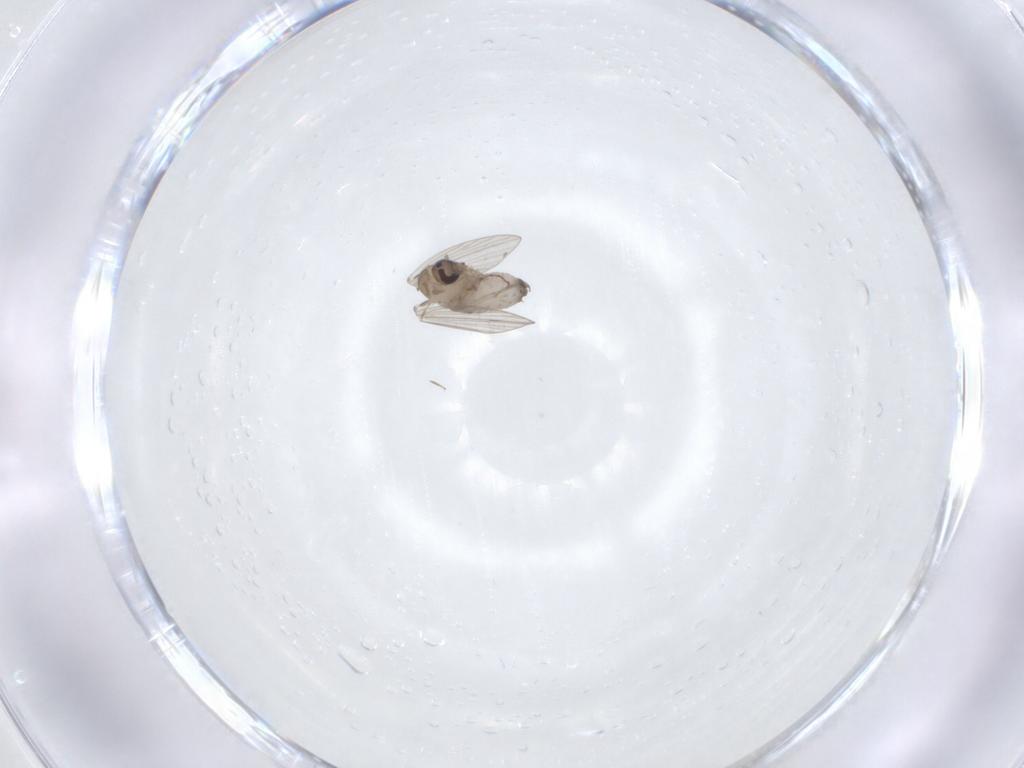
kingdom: Animalia
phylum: Arthropoda
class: Insecta
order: Diptera
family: Psychodidae
